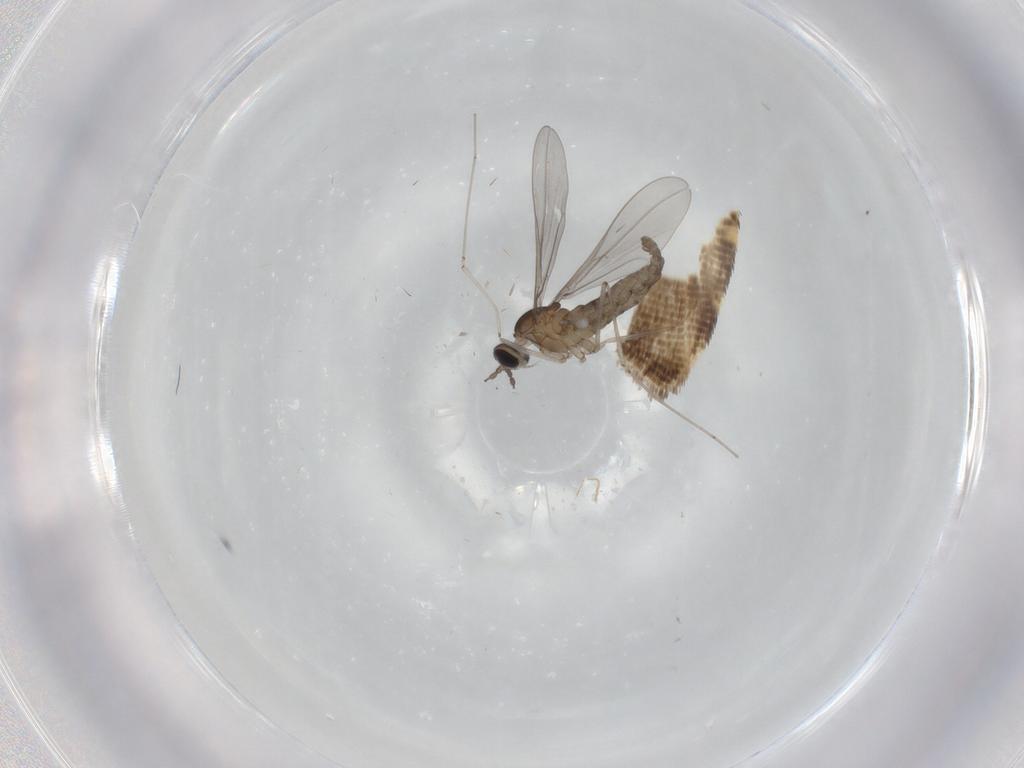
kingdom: Animalia
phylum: Arthropoda
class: Insecta
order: Diptera
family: Cecidomyiidae
